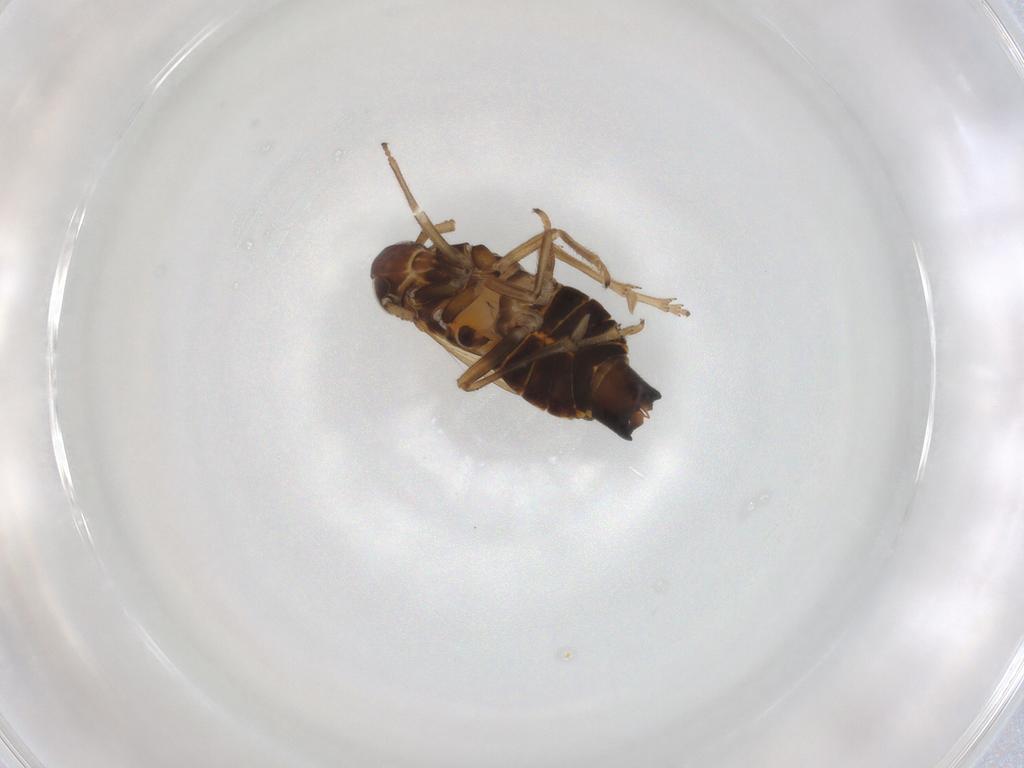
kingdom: Animalia
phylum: Arthropoda
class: Insecta
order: Hemiptera
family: Delphacidae
